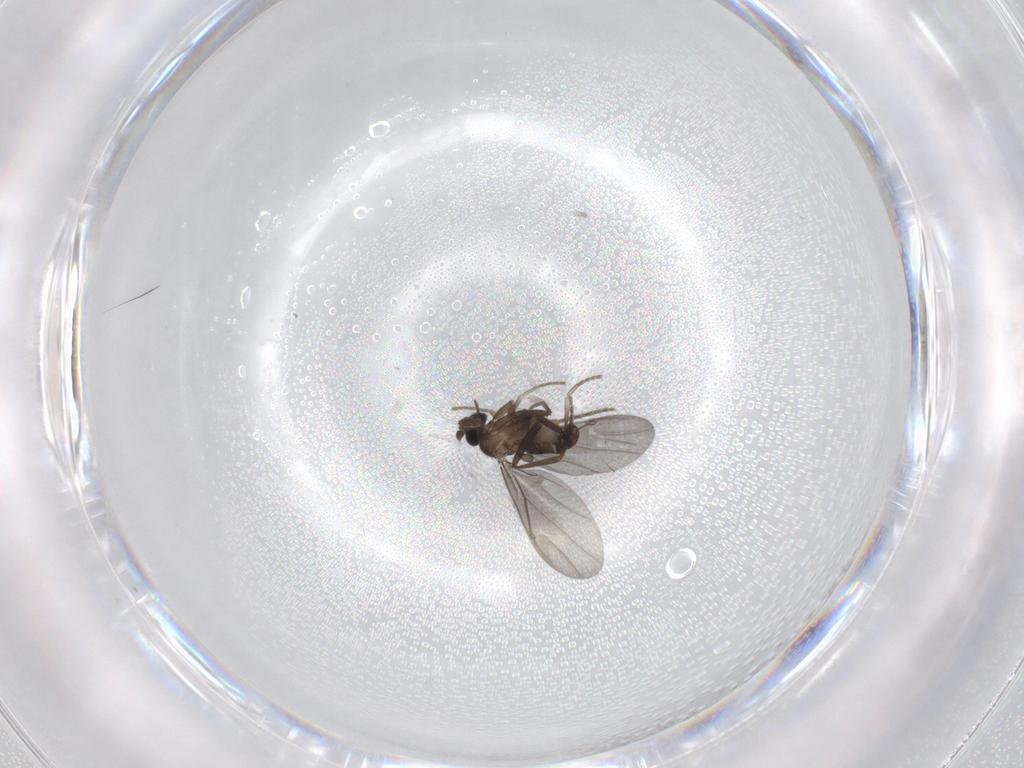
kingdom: Animalia
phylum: Arthropoda
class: Insecta
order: Diptera
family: Phoridae
